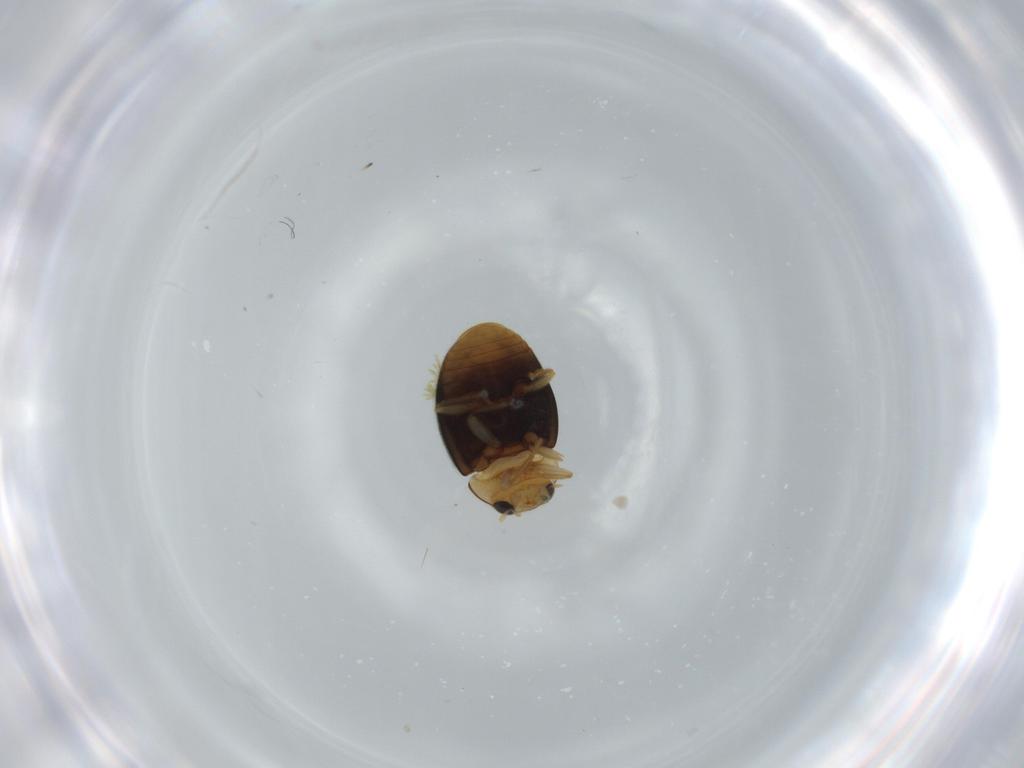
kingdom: Animalia
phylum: Arthropoda
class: Insecta
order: Coleoptera
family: Coccinellidae
